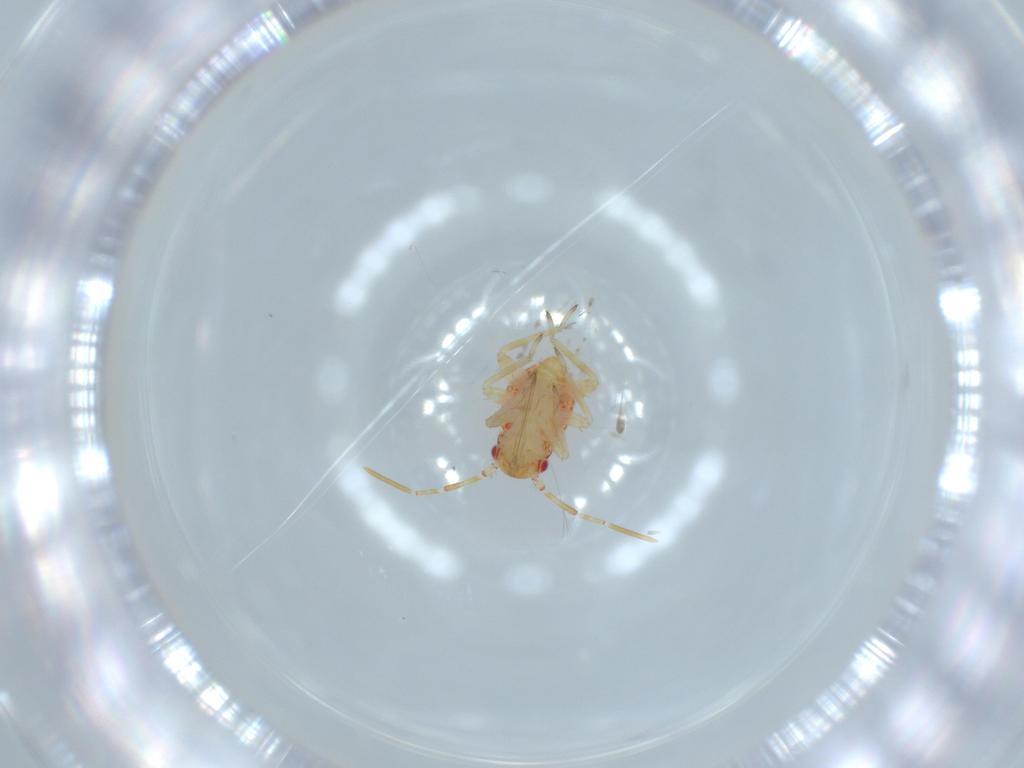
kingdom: Animalia
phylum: Arthropoda
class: Insecta
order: Hemiptera
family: Miridae
